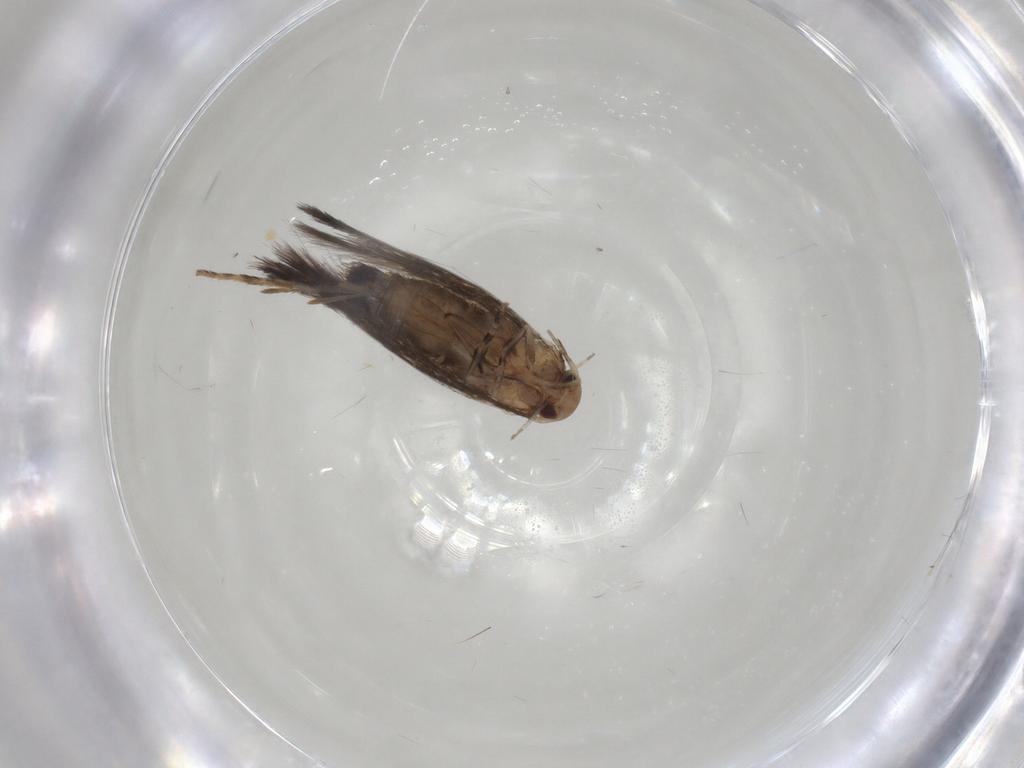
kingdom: Animalia
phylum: Arthropoda
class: Insecta
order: Lepidoptera
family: Elachistidae
